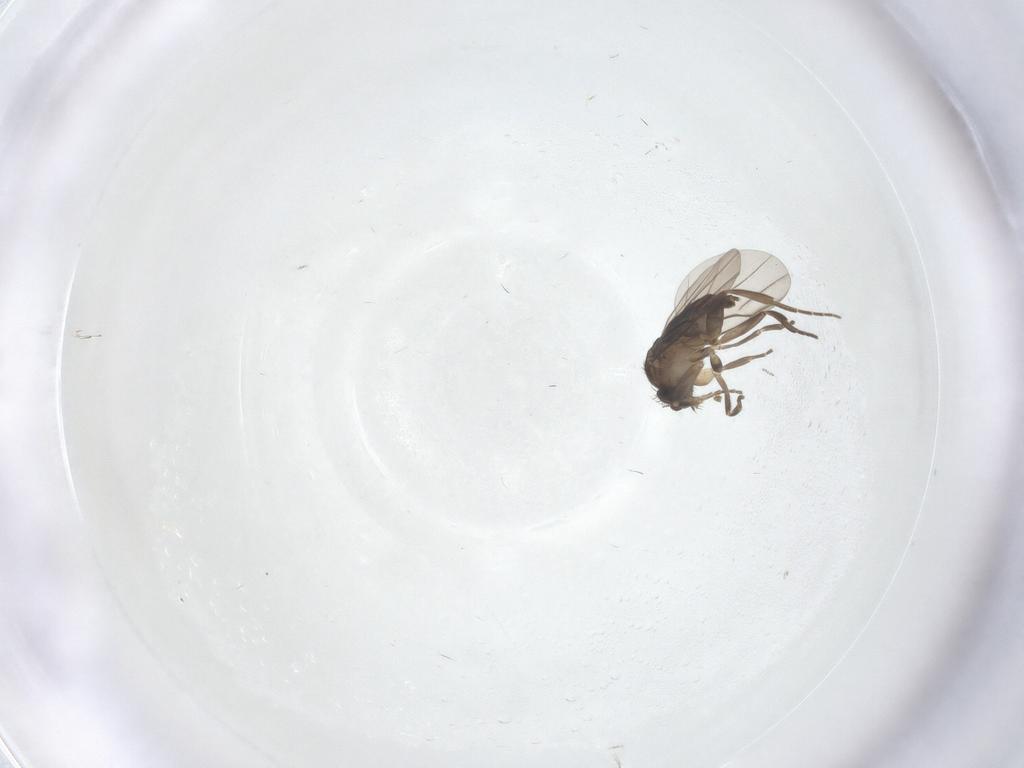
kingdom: Animalia
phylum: Arthropoda
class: Insecta
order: Diptera
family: Phoridae
